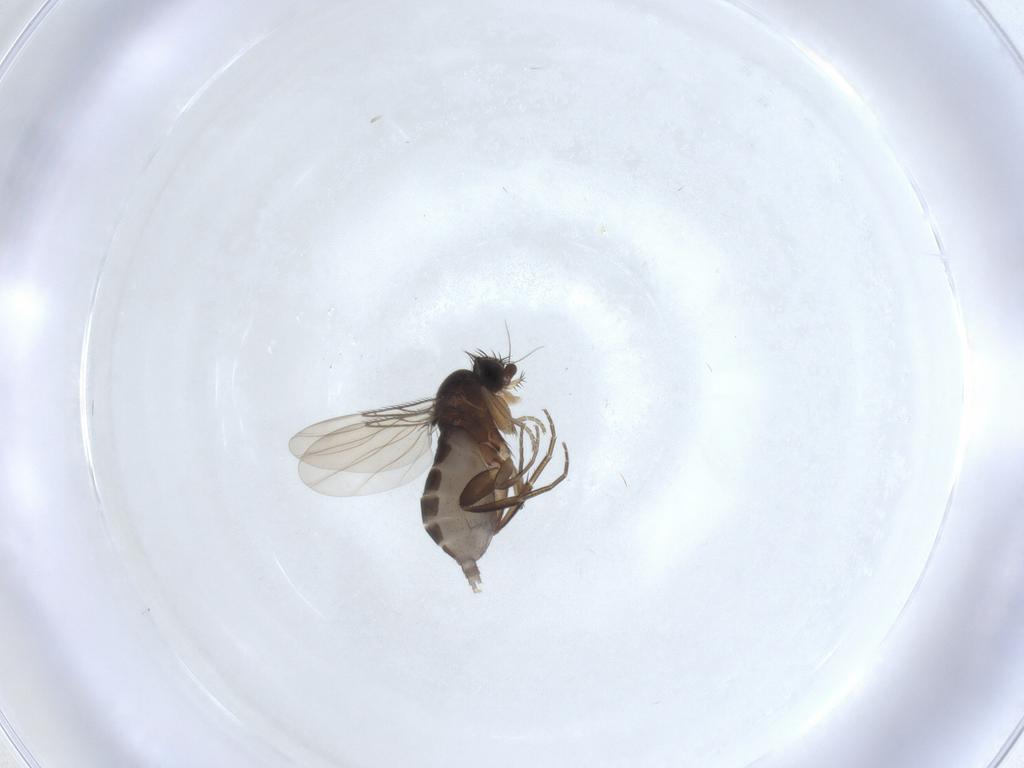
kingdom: Animalia
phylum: Arthropoda
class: Insecta
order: Diptera
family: Phoridae
